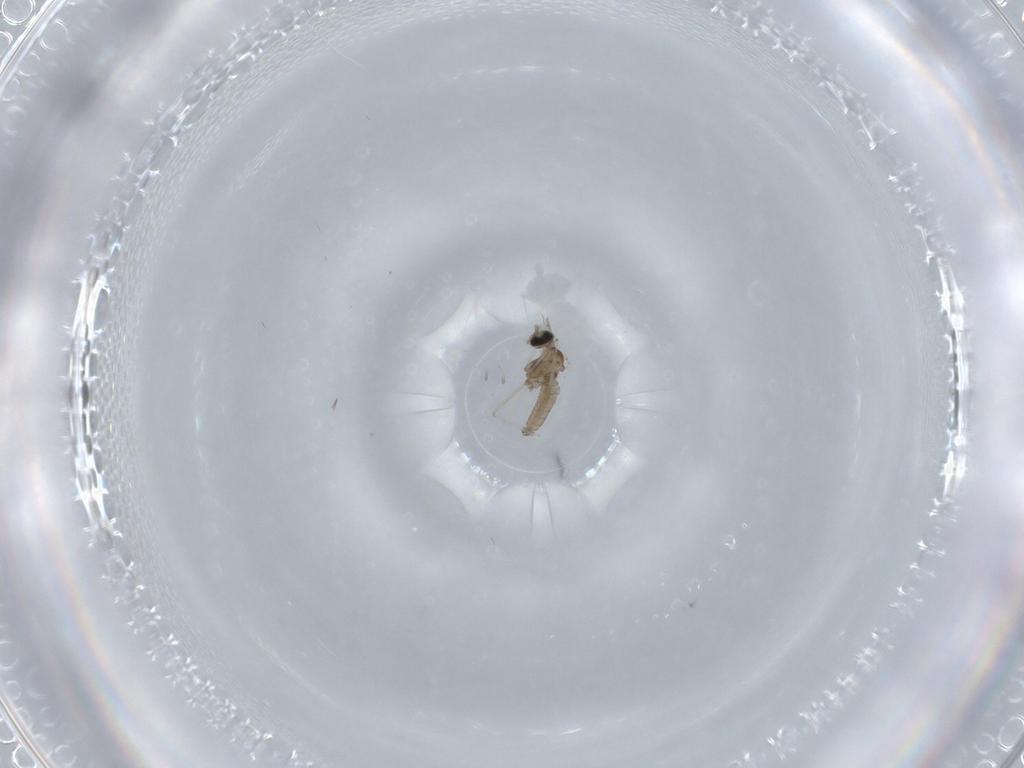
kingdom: Animalia
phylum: Arthropoda
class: Insecta
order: Diptera
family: Cecidomyiidae
